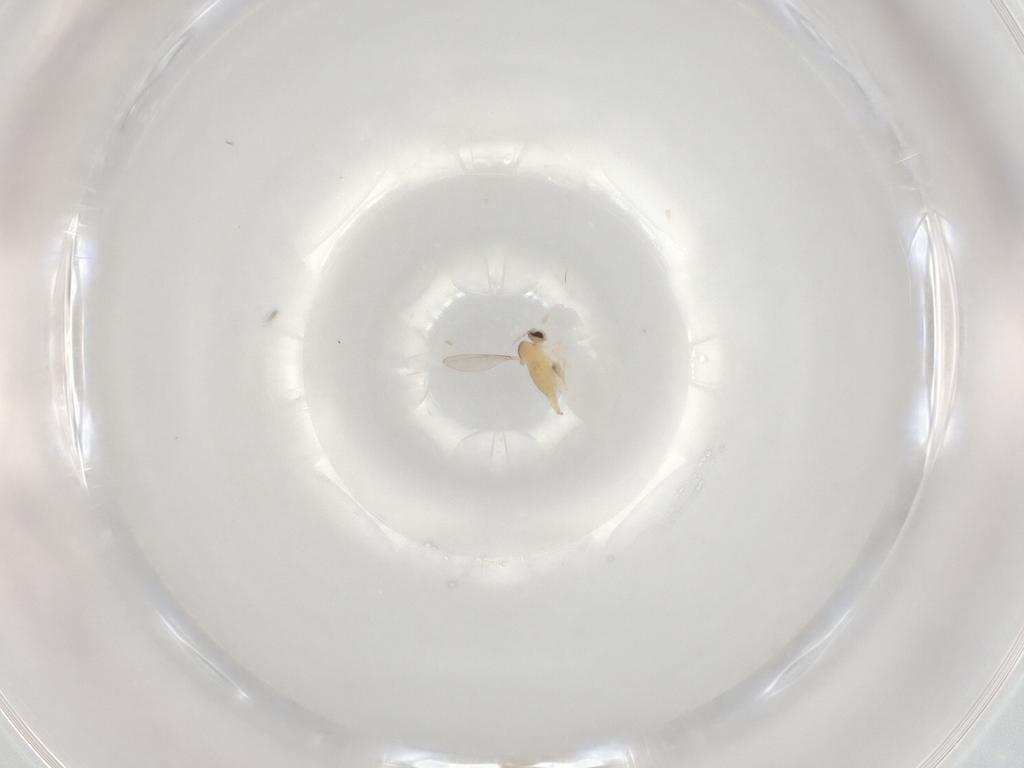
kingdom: Animalia
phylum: Arthropoda
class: Insecta
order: Diptera
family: Cecidomyiidae
